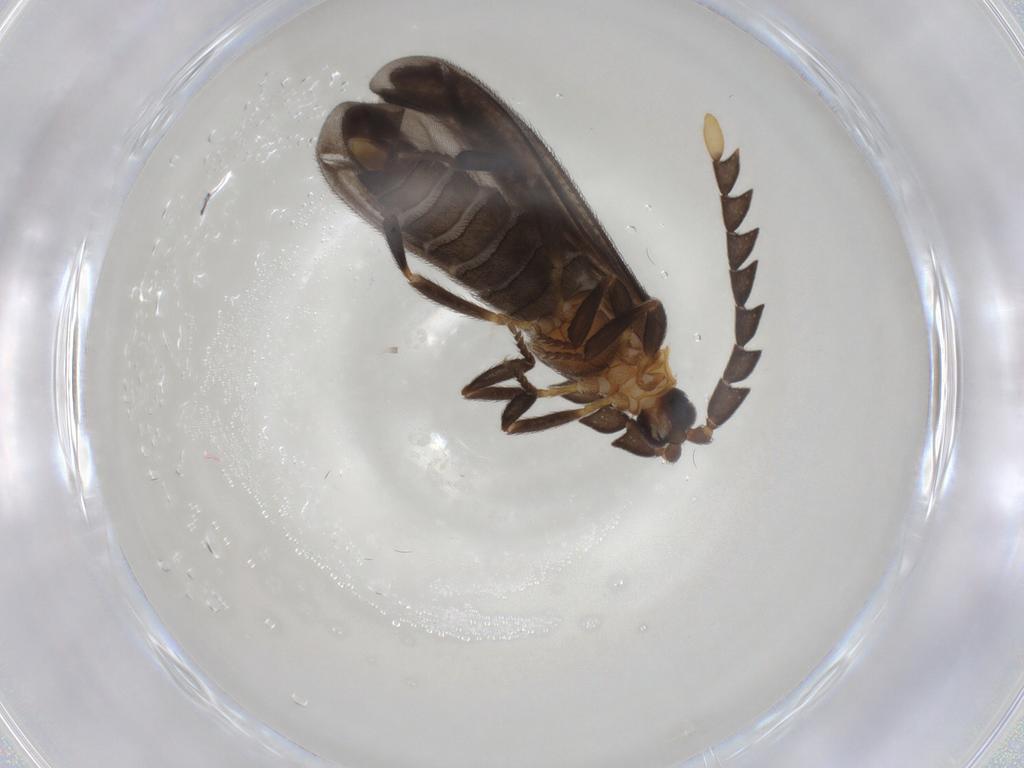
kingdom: Animalia
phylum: Arthropoda
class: Insecta
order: Coleoptera
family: Lycidae
